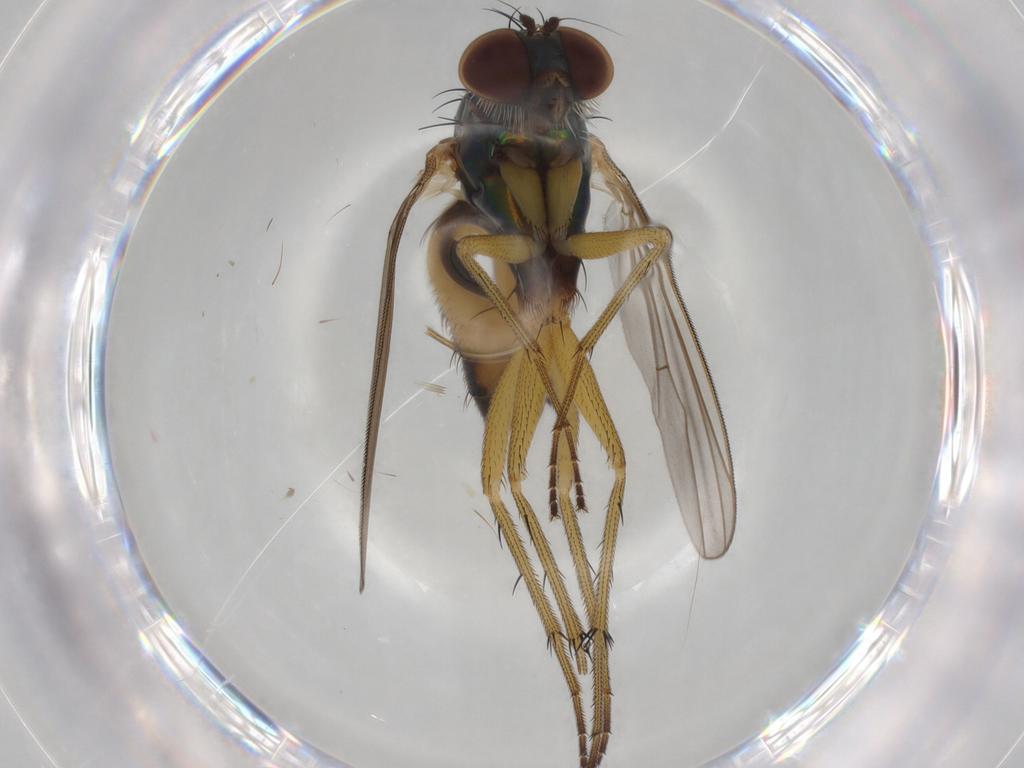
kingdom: Animalia
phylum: Arthropoda
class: Insecta
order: Diptera
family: Dolichopodidae
